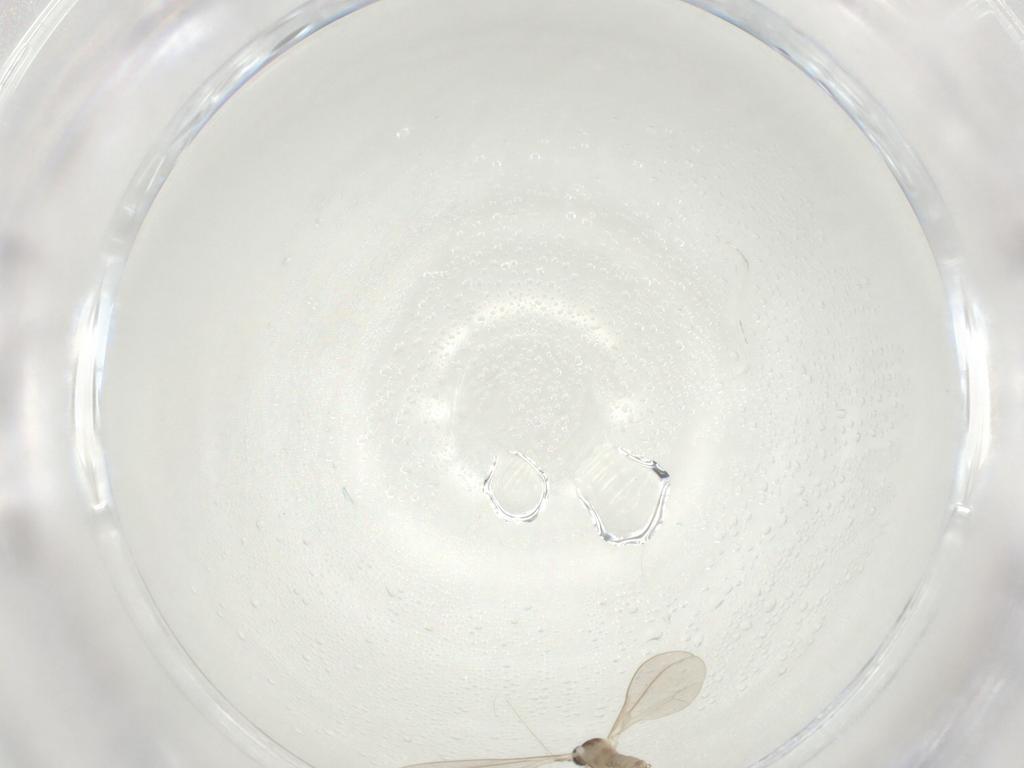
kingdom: Animalia
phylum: Arthropoda
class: Insecta
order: Diptera
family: Cecidomyiidae
